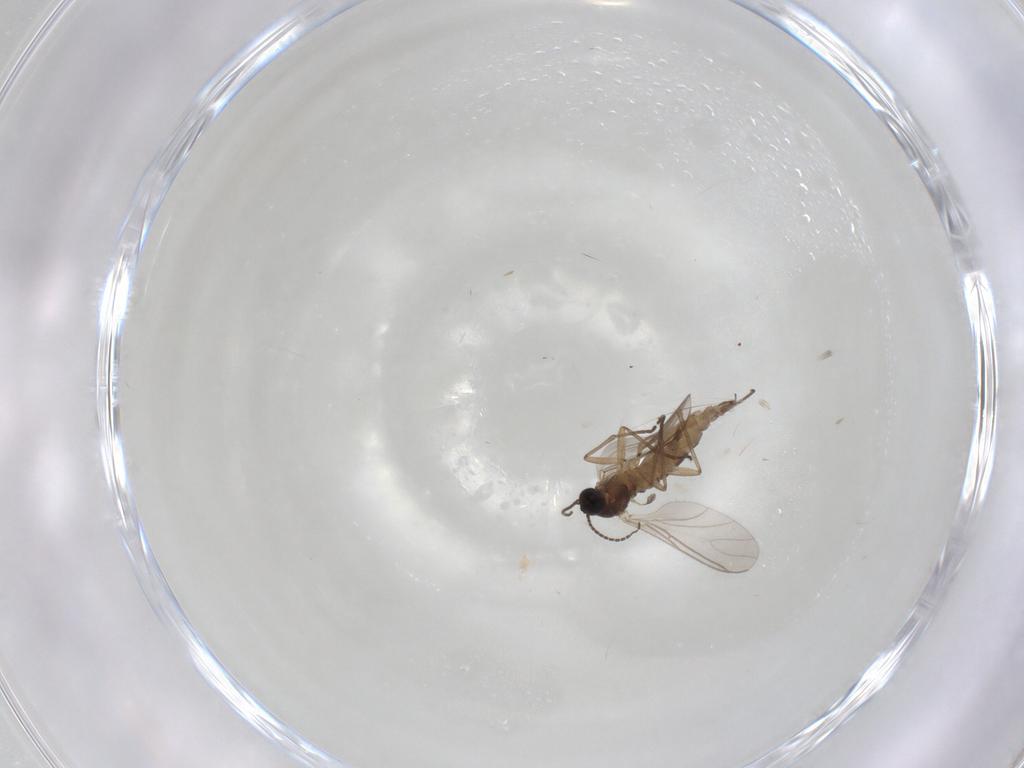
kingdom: Animalia
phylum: Arthropoda
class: Insecta
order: Diptera
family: Sciaridae
